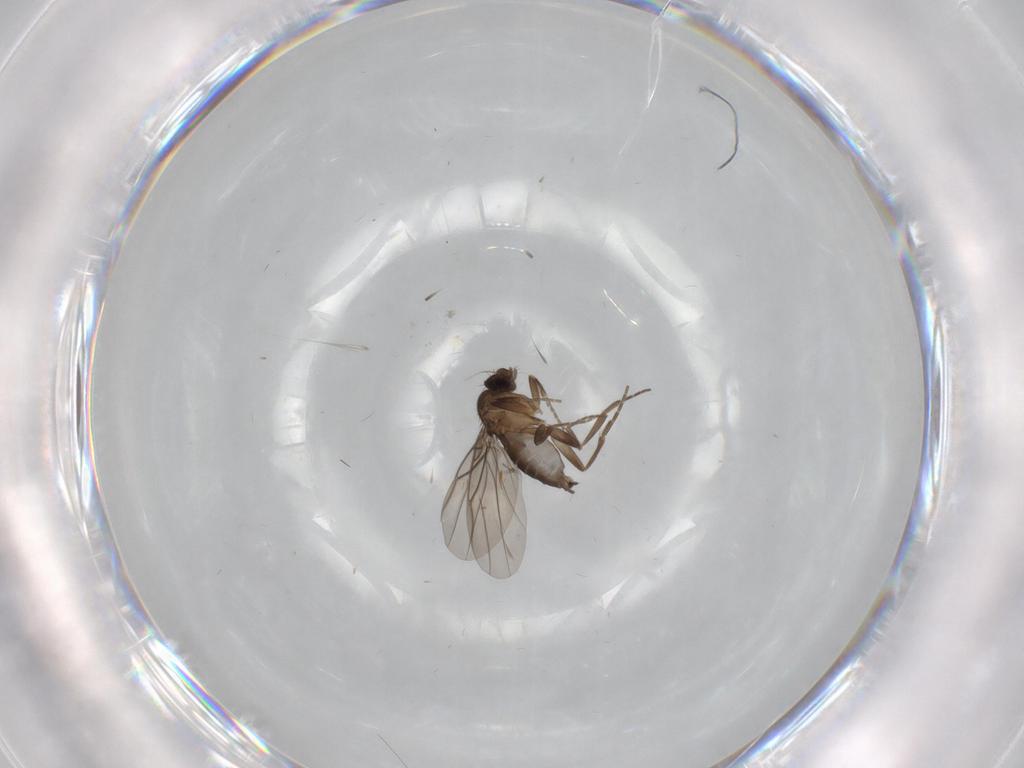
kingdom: Animalia
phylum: Arthropoda
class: Insecta
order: Diptera
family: Phoridae
